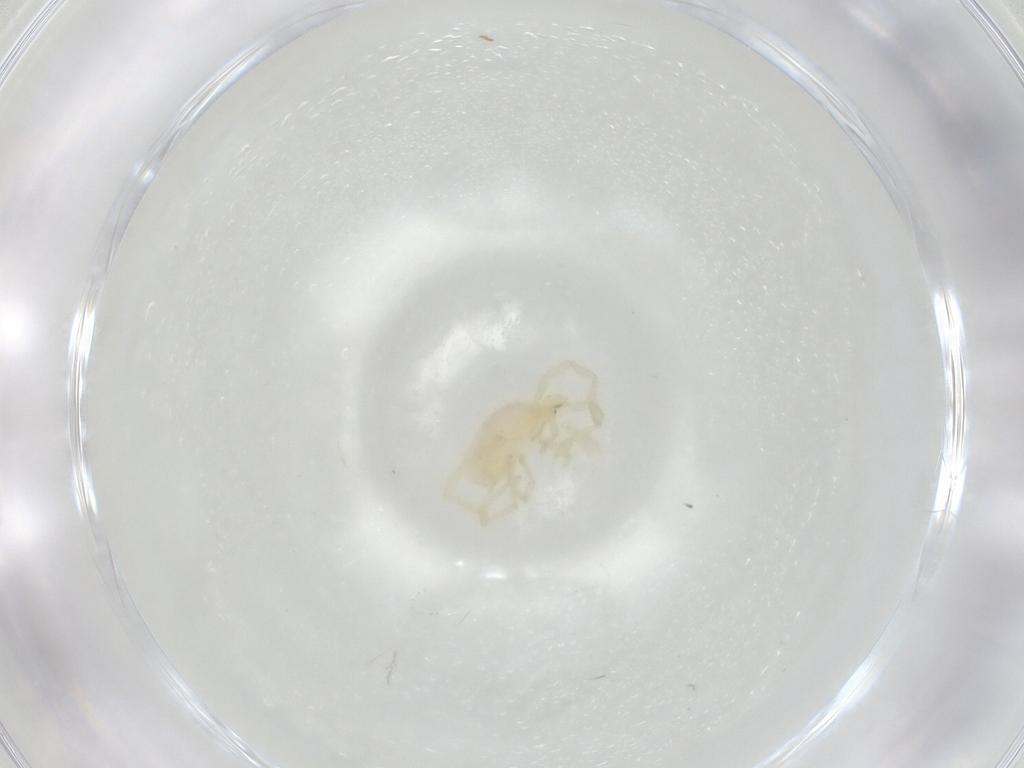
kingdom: Animalia
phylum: Arthropoda
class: Arachnida
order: Trombidiformes
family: Erythraeidae
